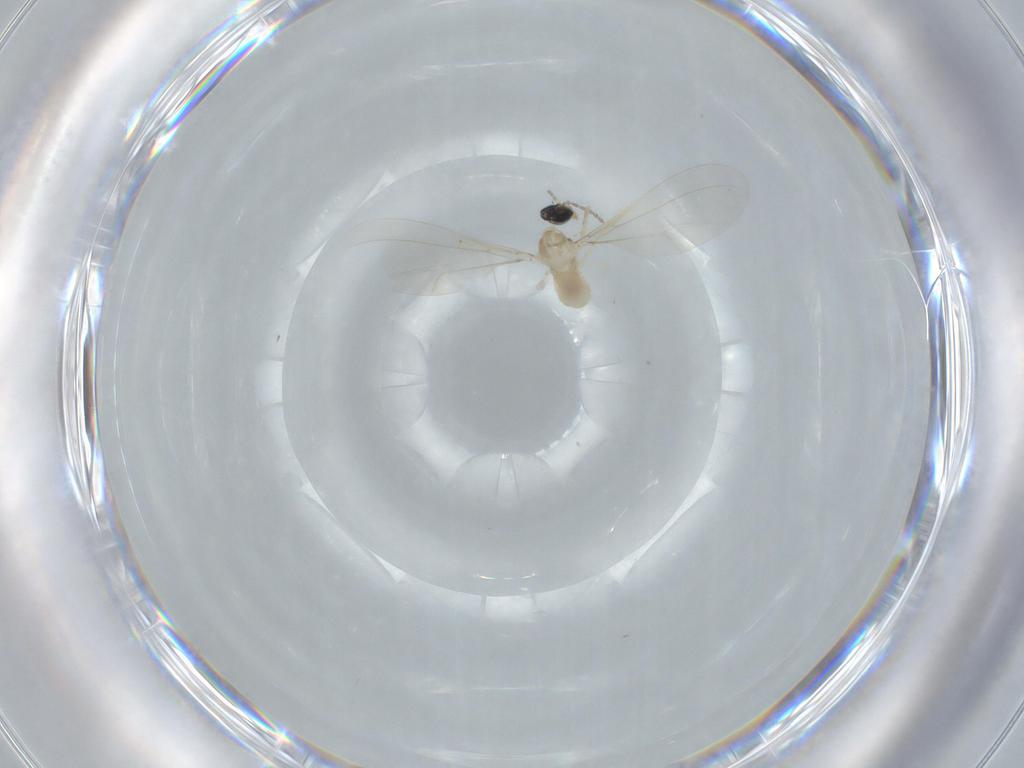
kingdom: Animalia
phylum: Arthropoda
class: Insecta
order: Diptera
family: Cecidomyiidae
